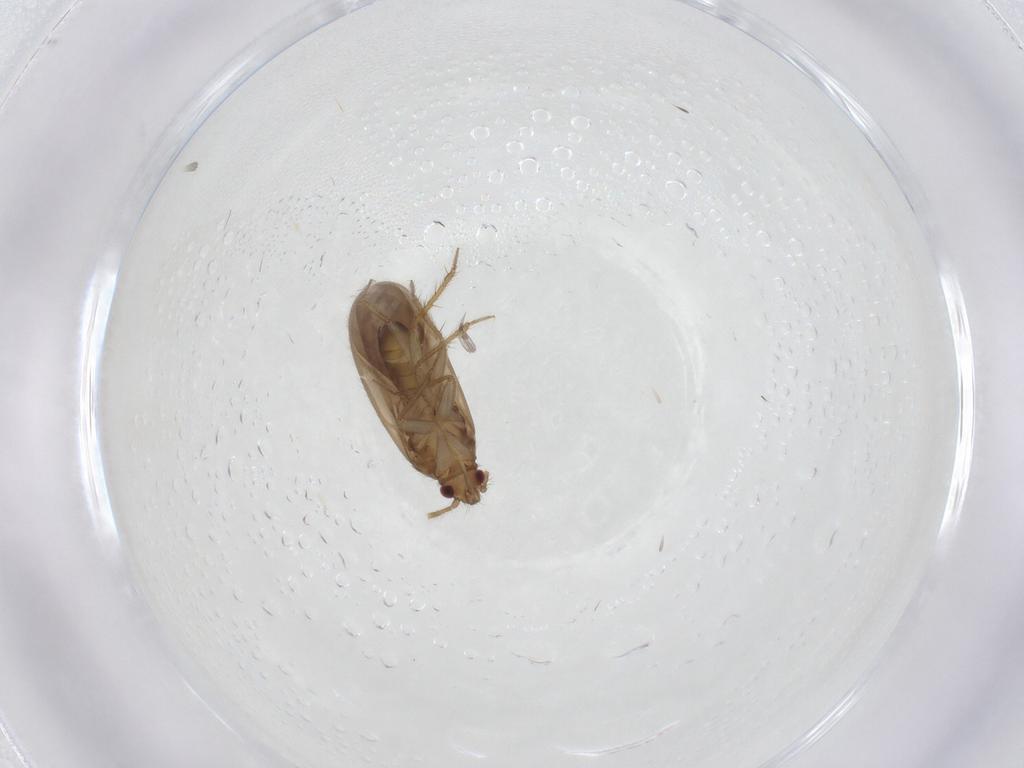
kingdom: Animalia
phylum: Arthropoda
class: Insecta
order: Hemiptera
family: Ceratocombidae
